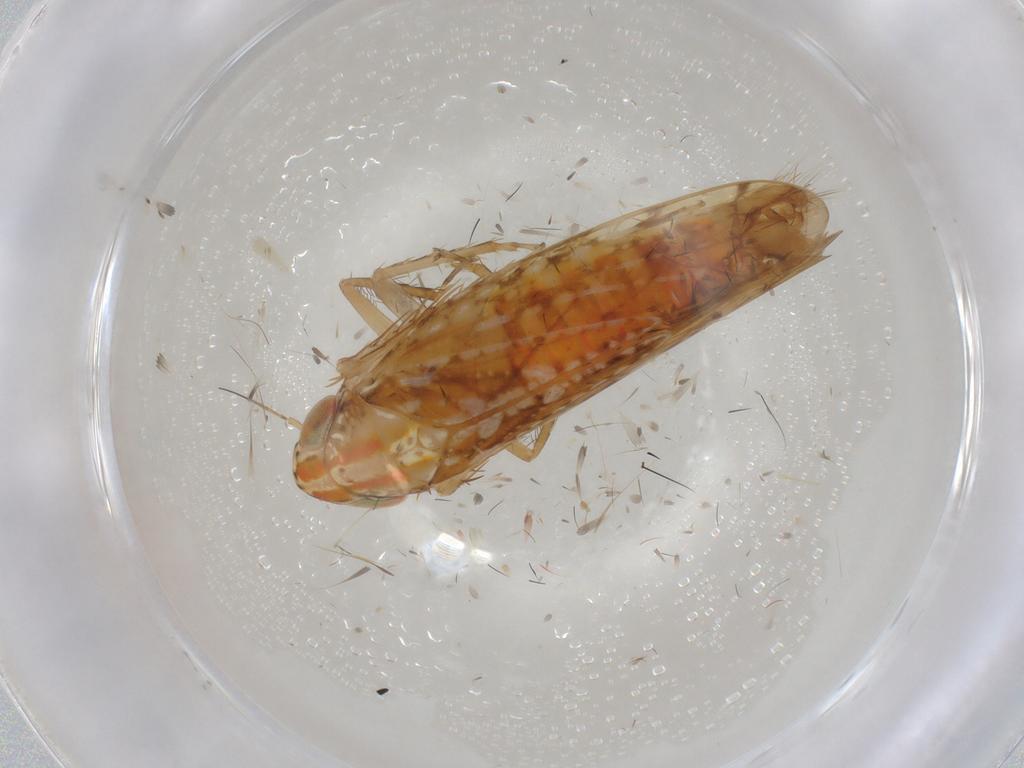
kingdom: Animalia
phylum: Arthropoda
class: Insecta
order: Hemiptera
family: Cicadellidae
